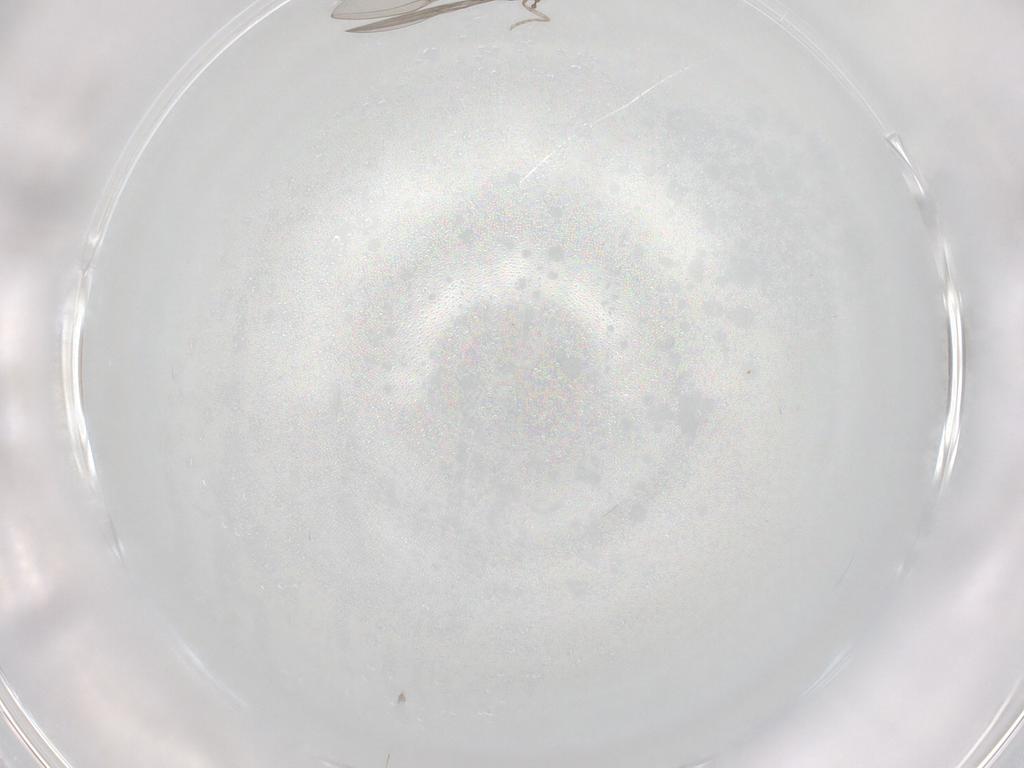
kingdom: Animalia
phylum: Arthropoda
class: Insecta
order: Diptera
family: Cecidomyiidae
